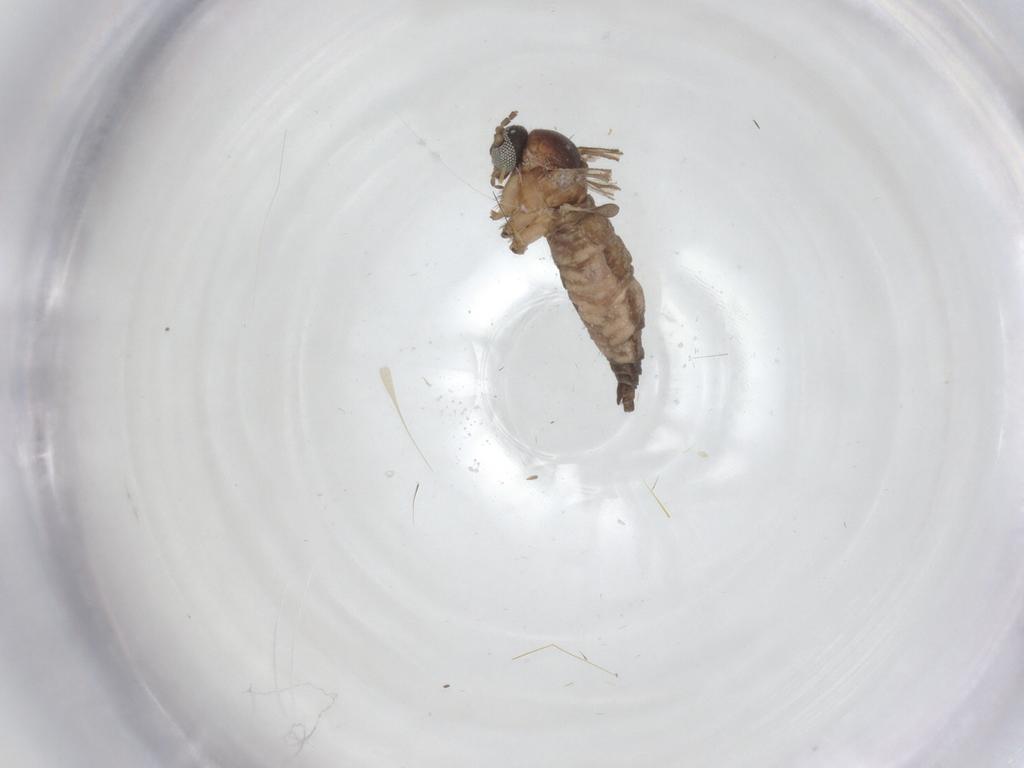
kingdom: Animalia
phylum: Arthropoda
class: Insecta
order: Diptera
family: Sciaridae
